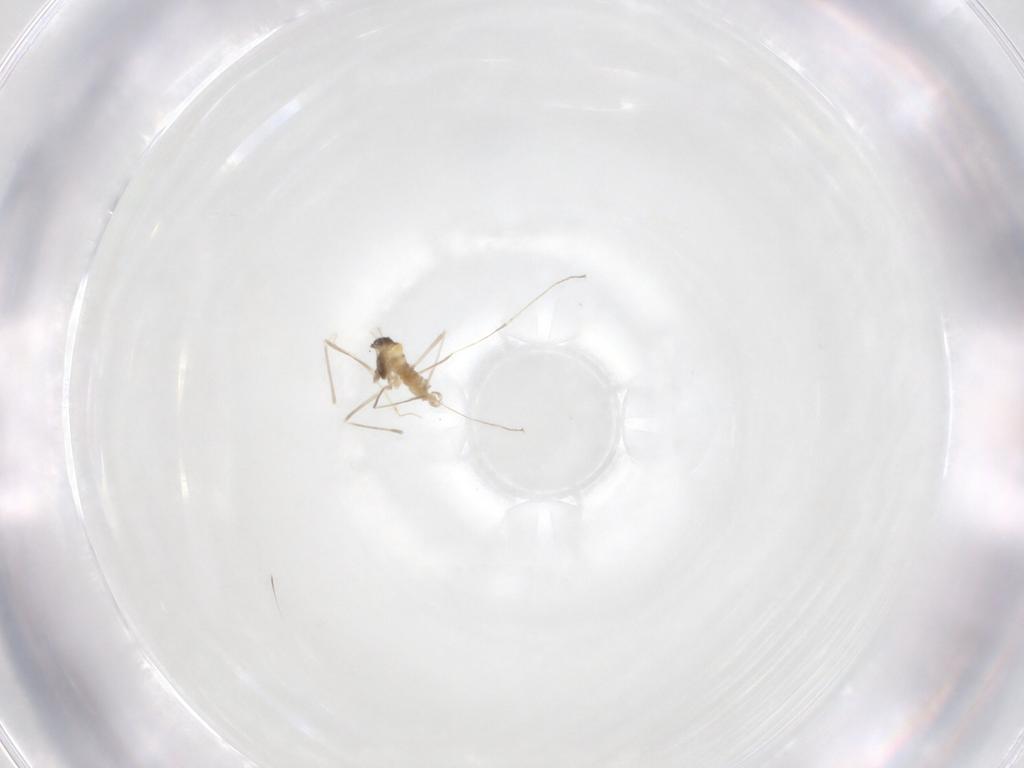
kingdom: Animalia
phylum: Arthropoda
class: Insecta
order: Diptera
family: Cecidomyiidae
